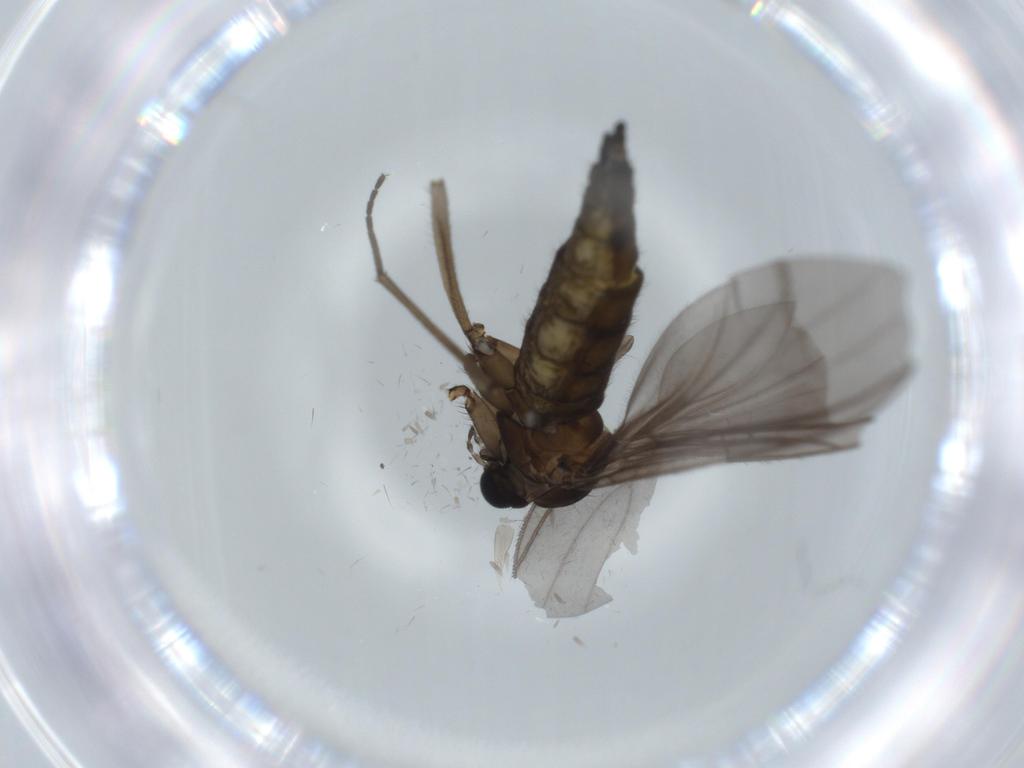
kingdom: Animalia
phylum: Arthropoda
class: Insecta
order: Diptera
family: Sciaridae
